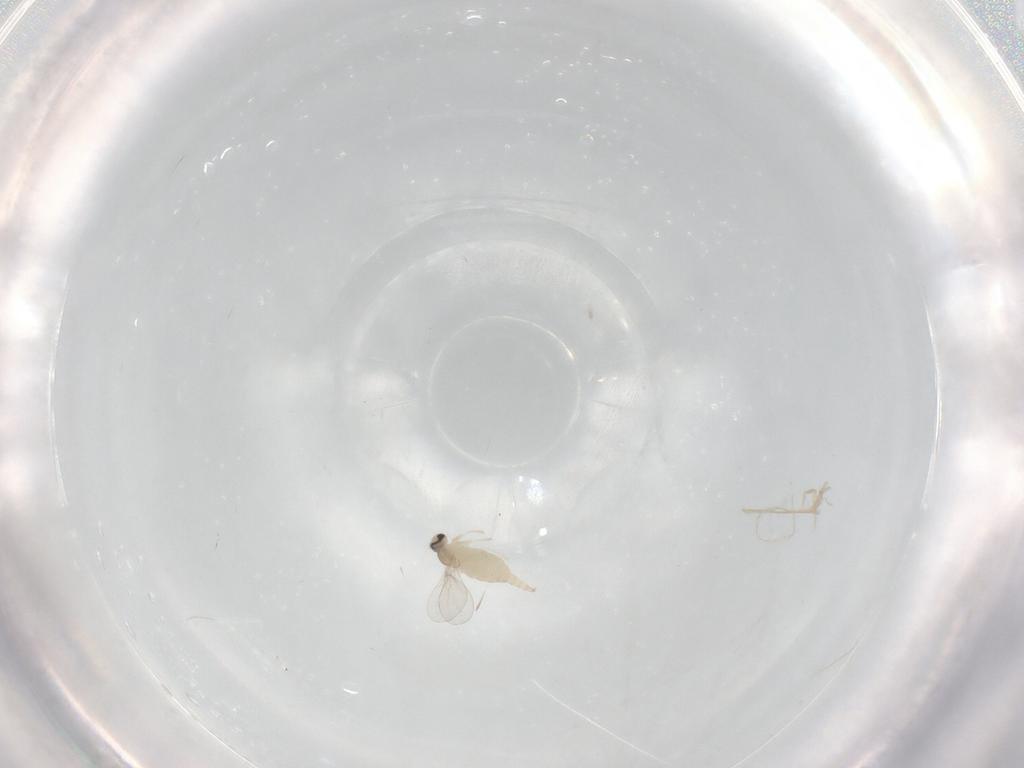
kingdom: Animalia
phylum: Arthropoda
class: Insecta
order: Diptera
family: Cecidomyiidae
